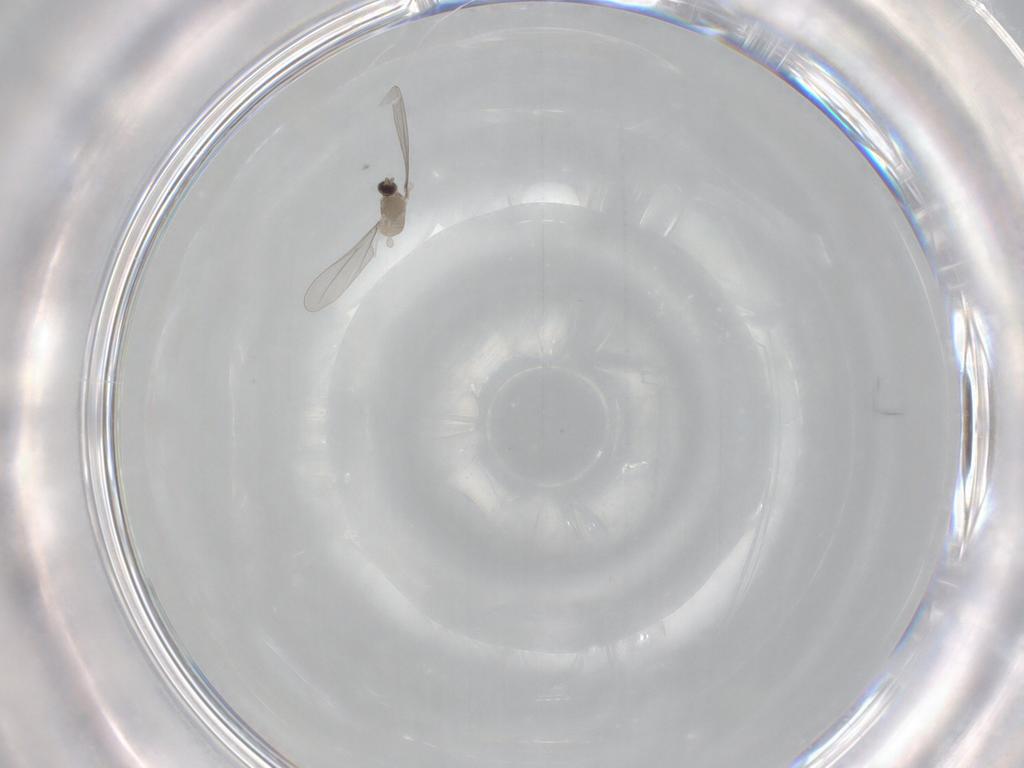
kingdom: Animalia
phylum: Arthropoda
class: Insecta
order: Diptera
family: Cecidomyiidae
